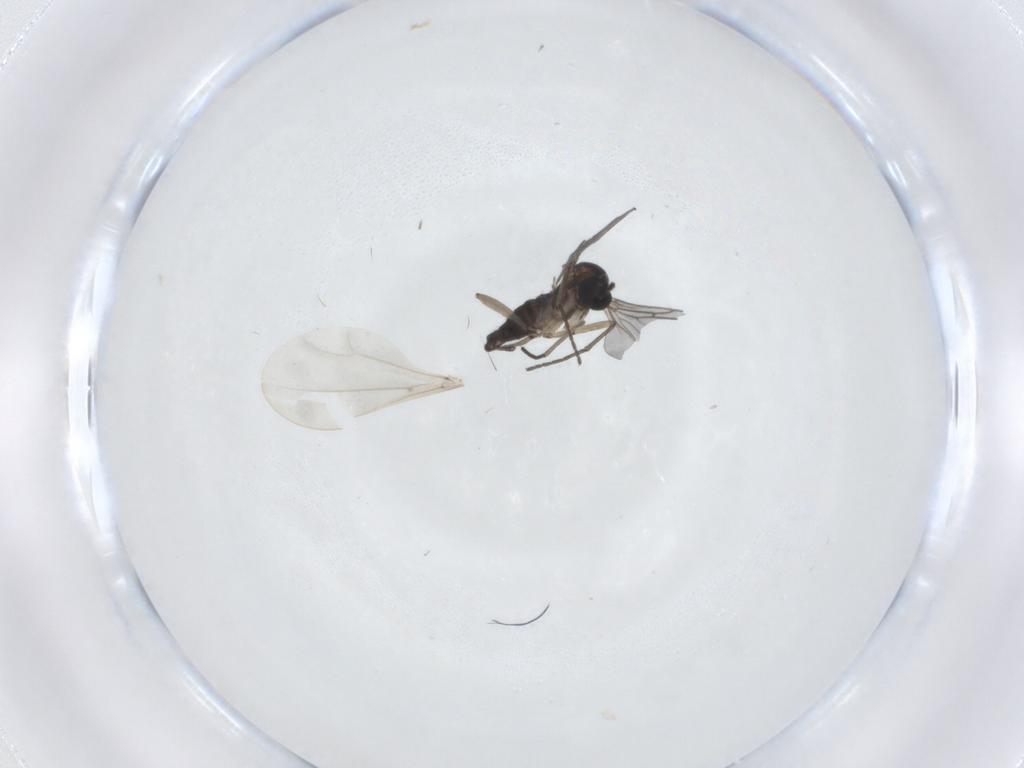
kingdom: Animalia
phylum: Arthropoda
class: Insecta
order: Diptera
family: Sciaridae
